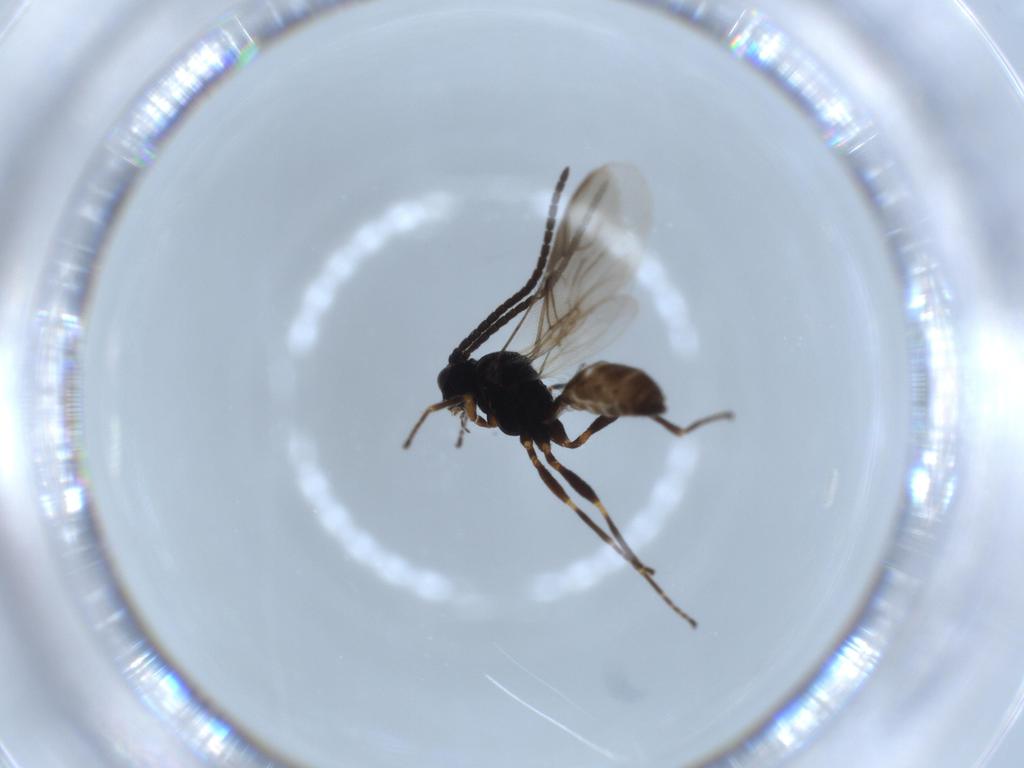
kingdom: Animalia
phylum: Arthropoda
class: Insecta
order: Hymenoptera
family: Braconidae
